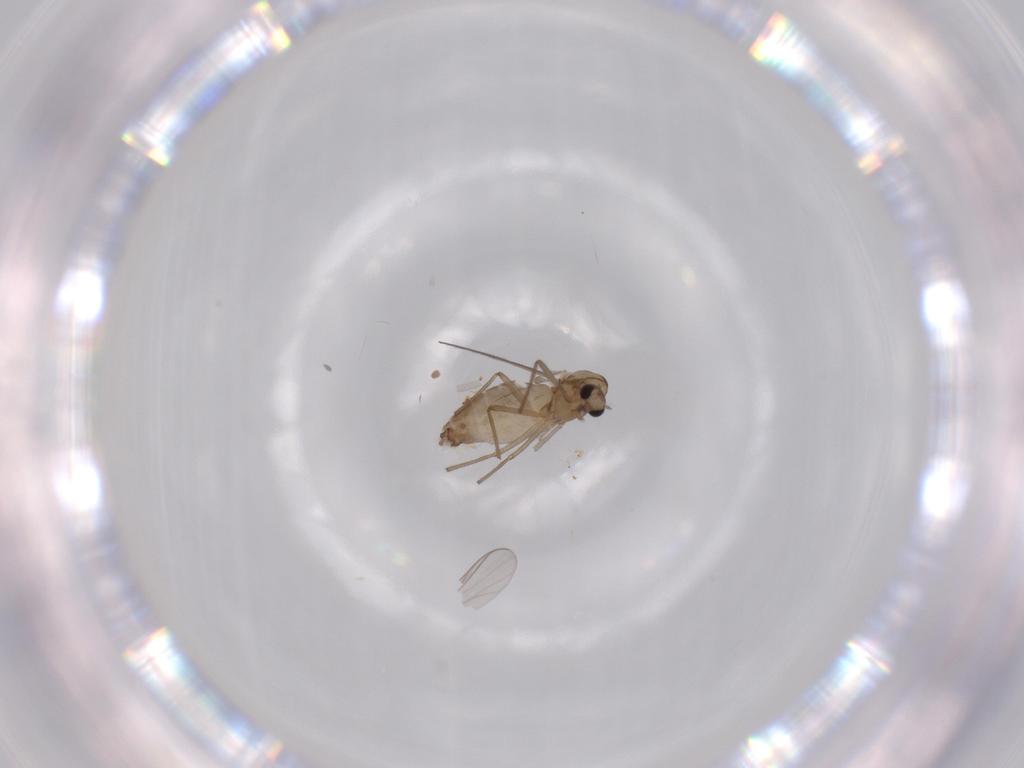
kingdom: Animalia
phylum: Arthropoda
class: Insecta
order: Diptera
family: Chironomidae
